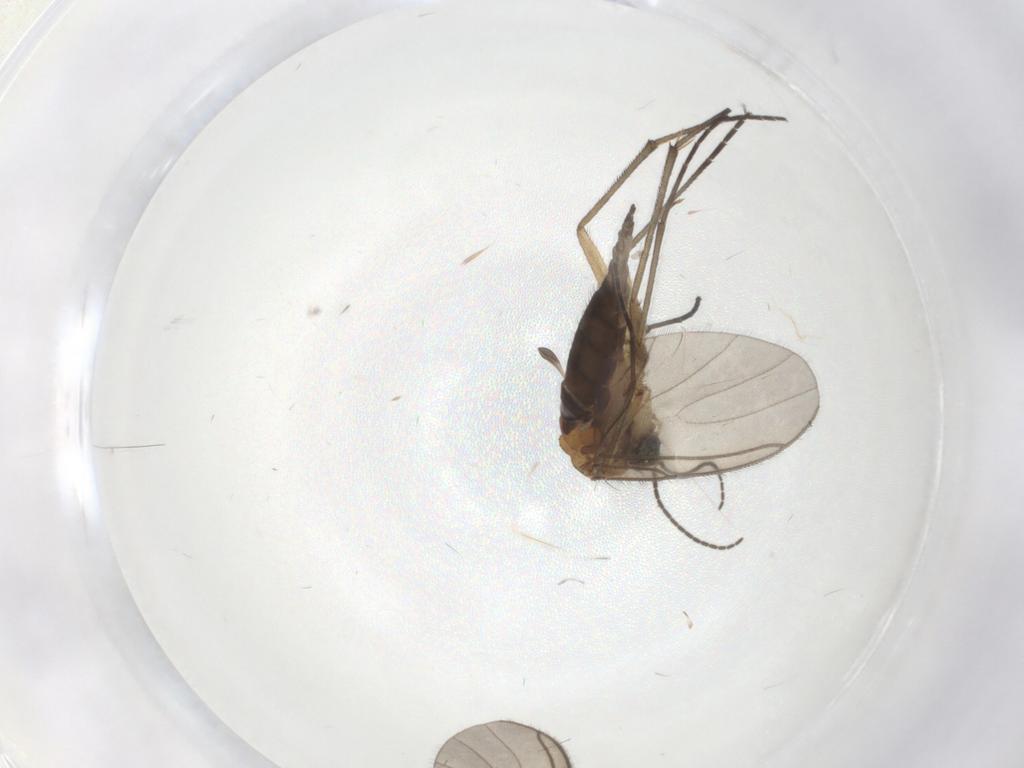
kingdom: Animalia
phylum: Arthropoda
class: Insecta
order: Diptera
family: Sciaridae
